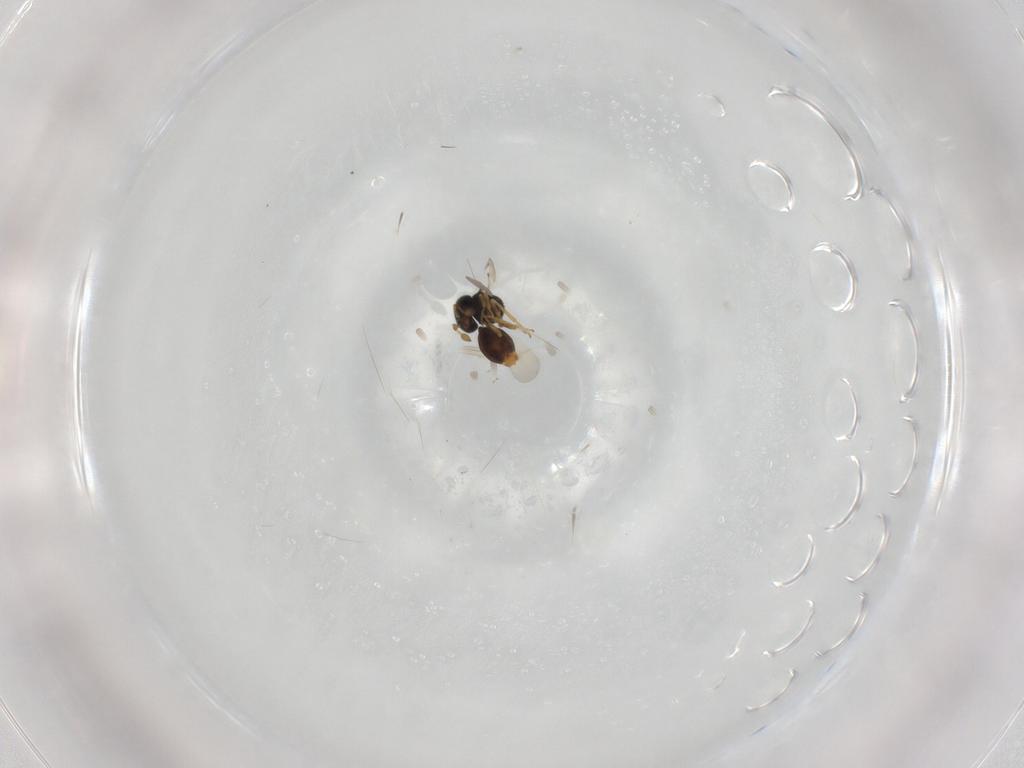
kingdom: Animalia
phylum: Arthropoda
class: Insecta
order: Hymenoptera
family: Scelionidae
